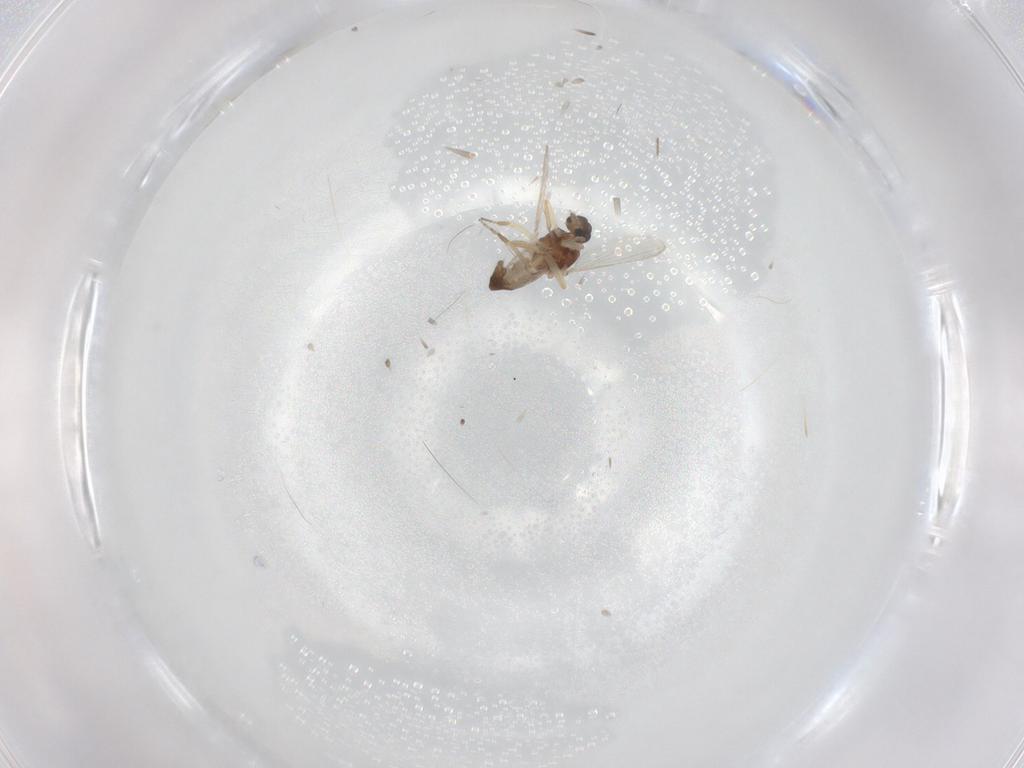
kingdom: Animalia
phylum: Arthropoda
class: Insecta
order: Diptera
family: Ceratopogonidae
